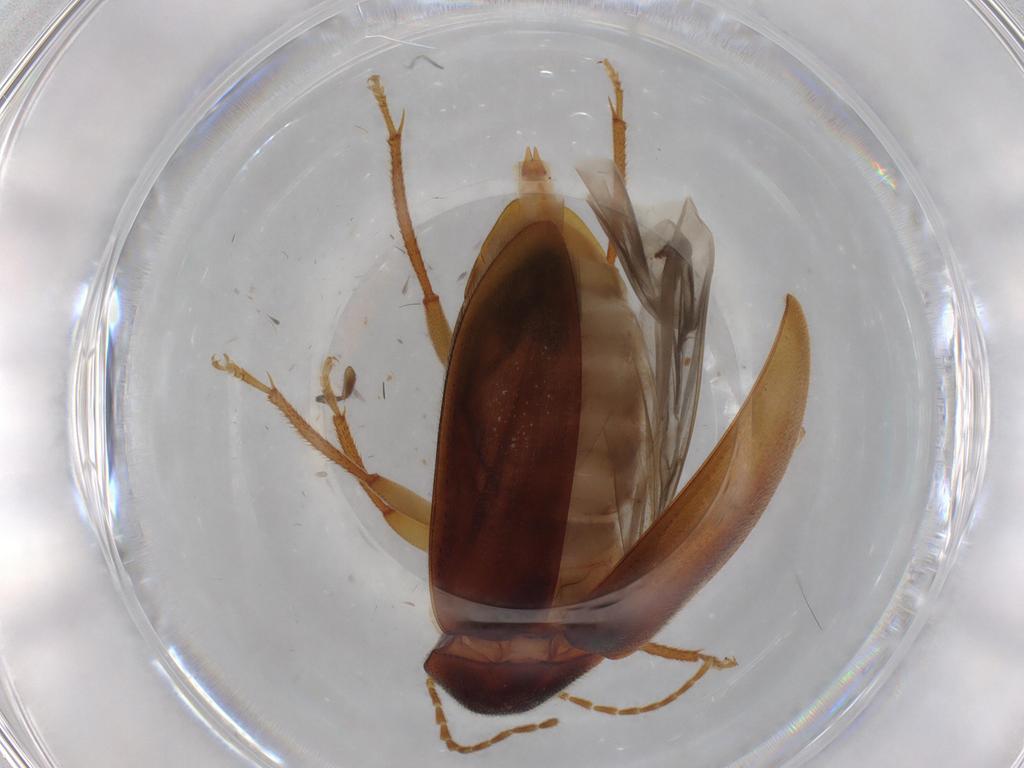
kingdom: Animalia
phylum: Arthropoda
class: Insecta
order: Coleoptera
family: Ptilodactylidae
